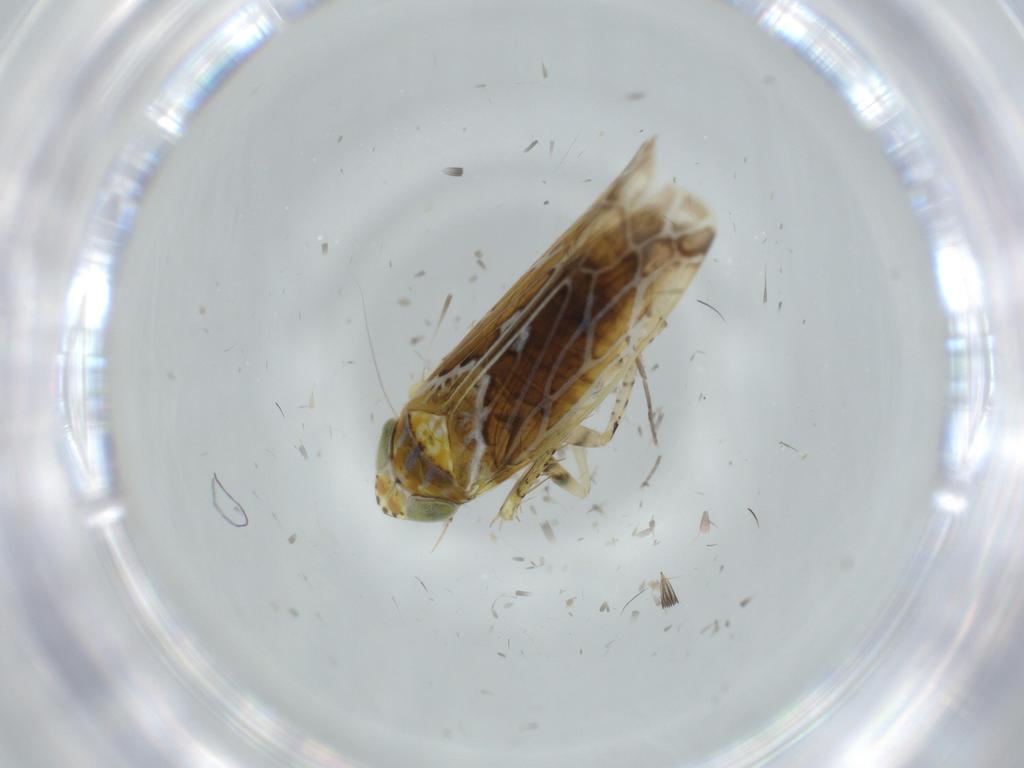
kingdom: Animalia
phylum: Arthropoda
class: Insecta
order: Hemiptera
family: Cicadellidae
